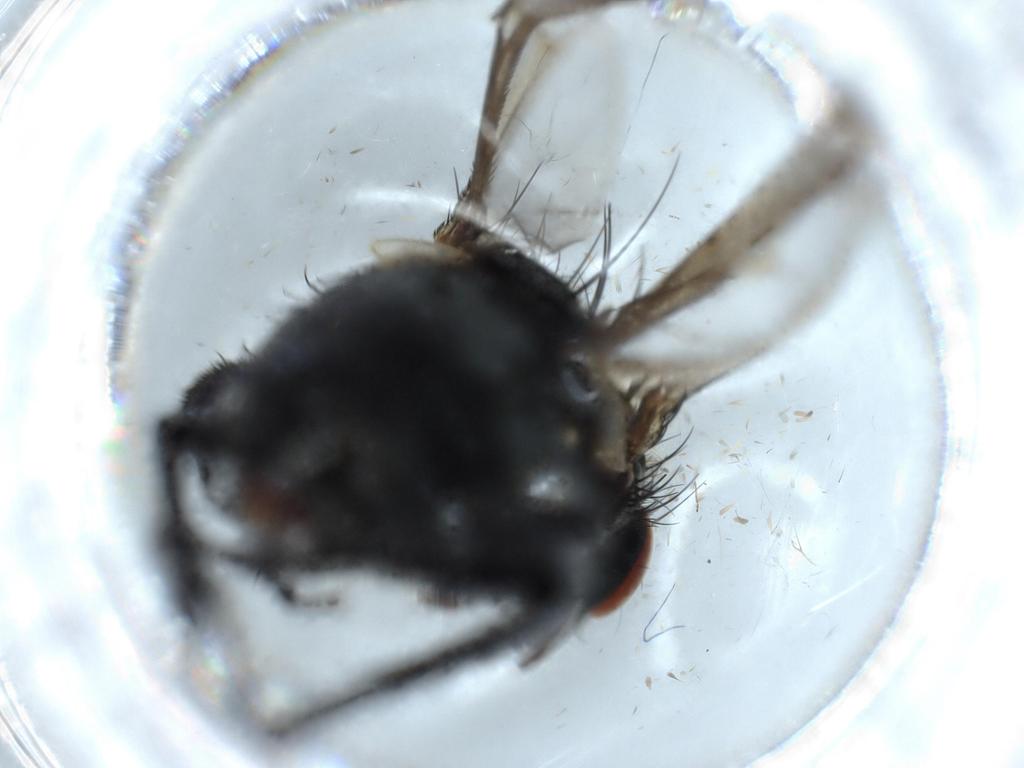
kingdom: Animalia
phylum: Arthropoda
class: Insecta
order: Diptera
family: Sarcophagidae
